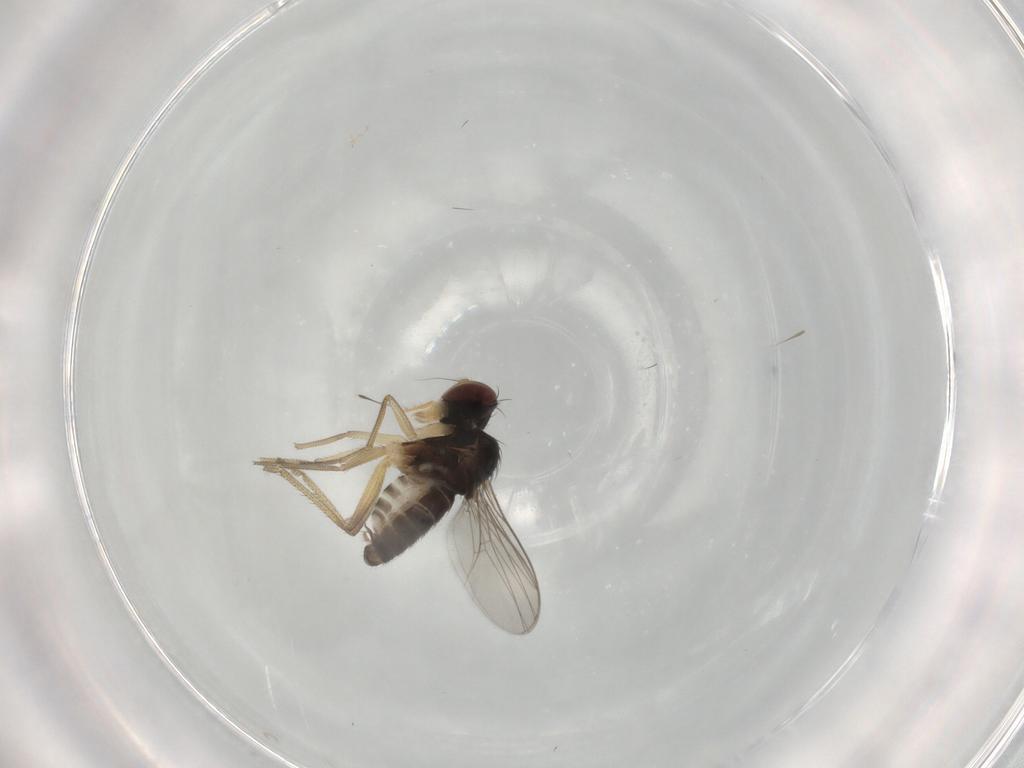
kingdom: Animalia
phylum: Arthropoda
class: Insecta
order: Diptera
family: Dolichopodidae
